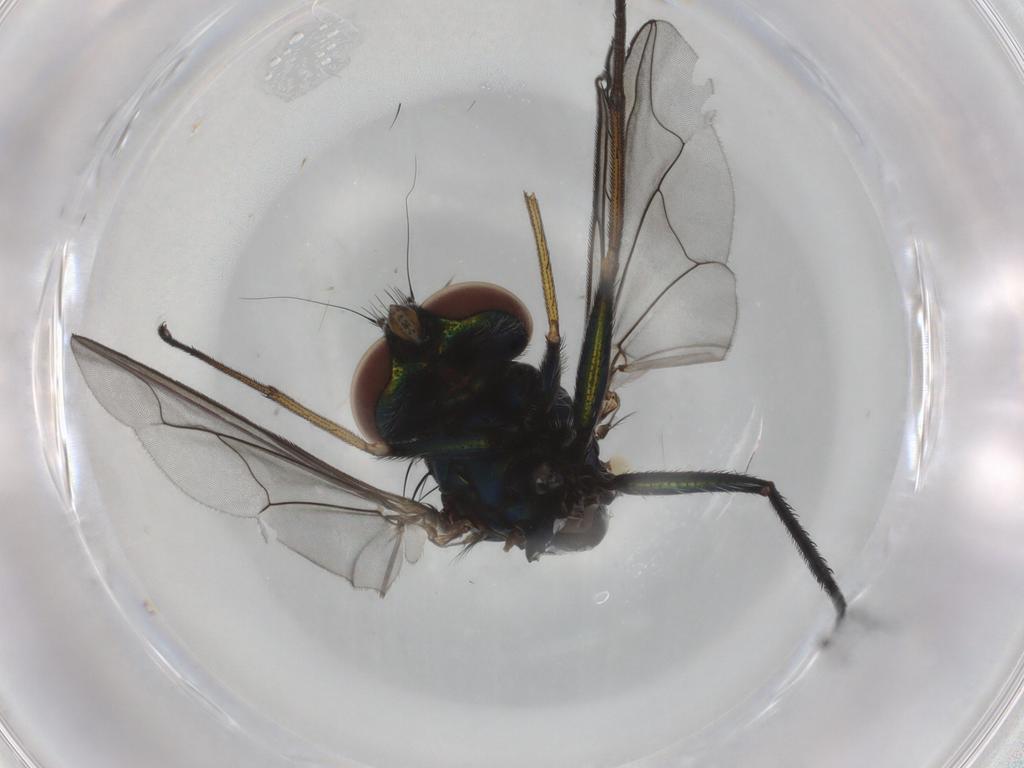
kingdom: Animalia
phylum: Arthropoda
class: Insecta
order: Diptera
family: Dolichopodidae
